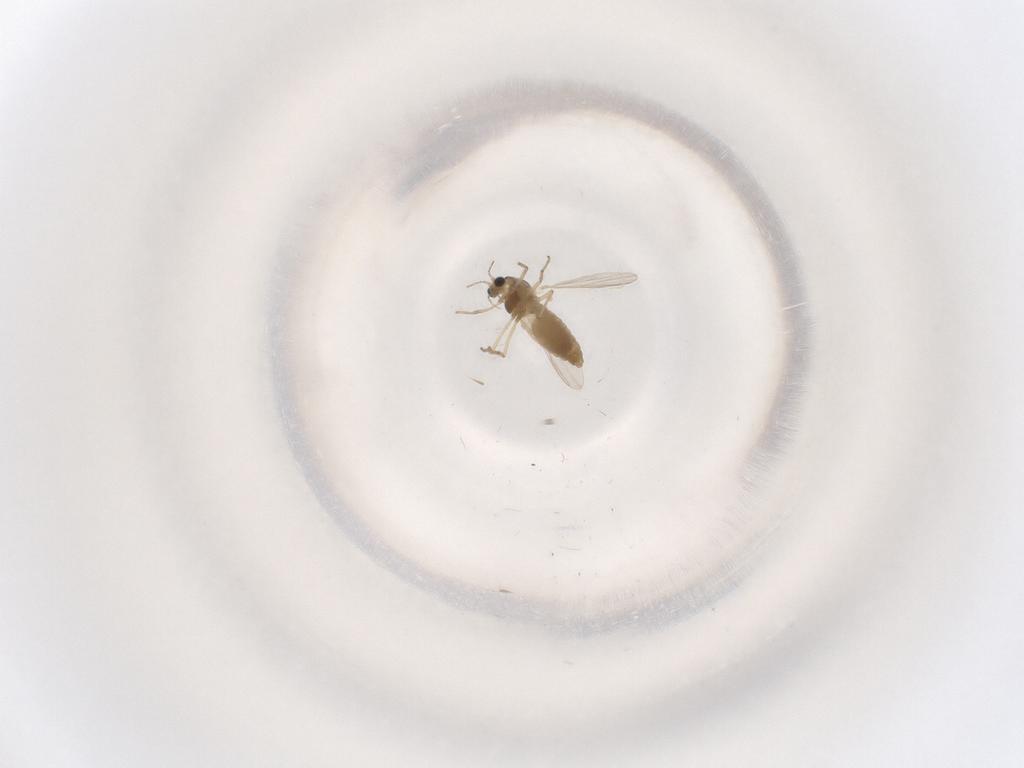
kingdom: Animalia
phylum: Arthropoda
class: Insecta
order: Diptera
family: Chironomidae
